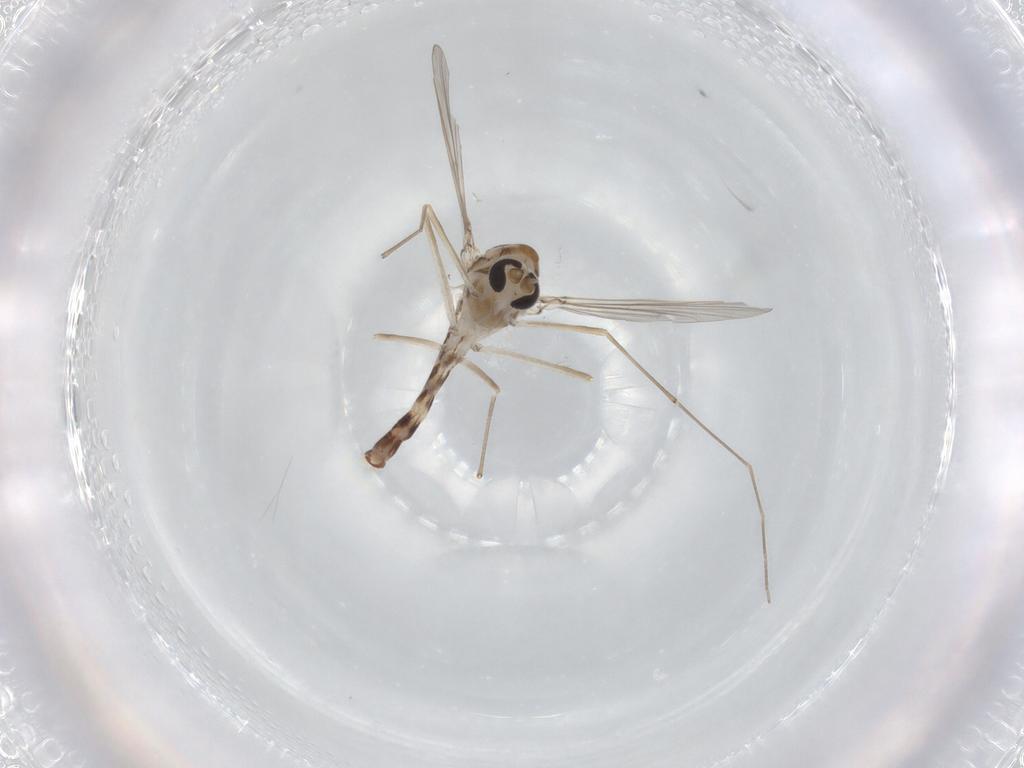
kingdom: Animalia
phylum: Arthropoda
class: Insecta
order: Diptera
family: Chironomidae
